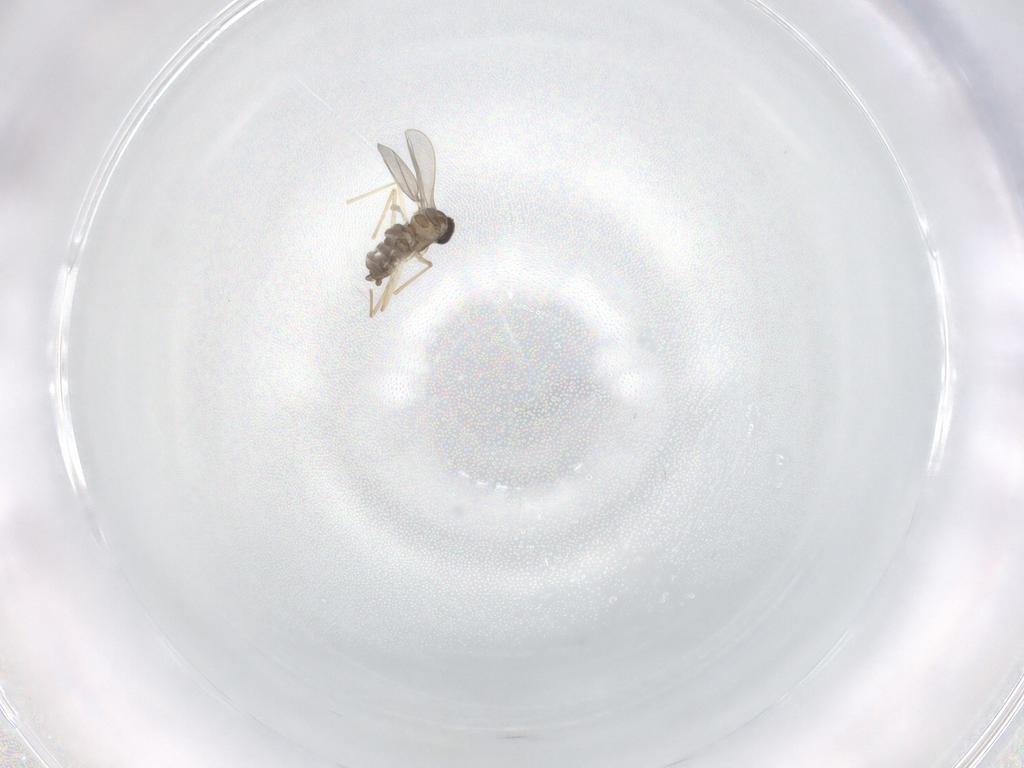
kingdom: Animalia
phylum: Arthropoda
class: Insecta
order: Diptera
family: Cecidomyiidae
